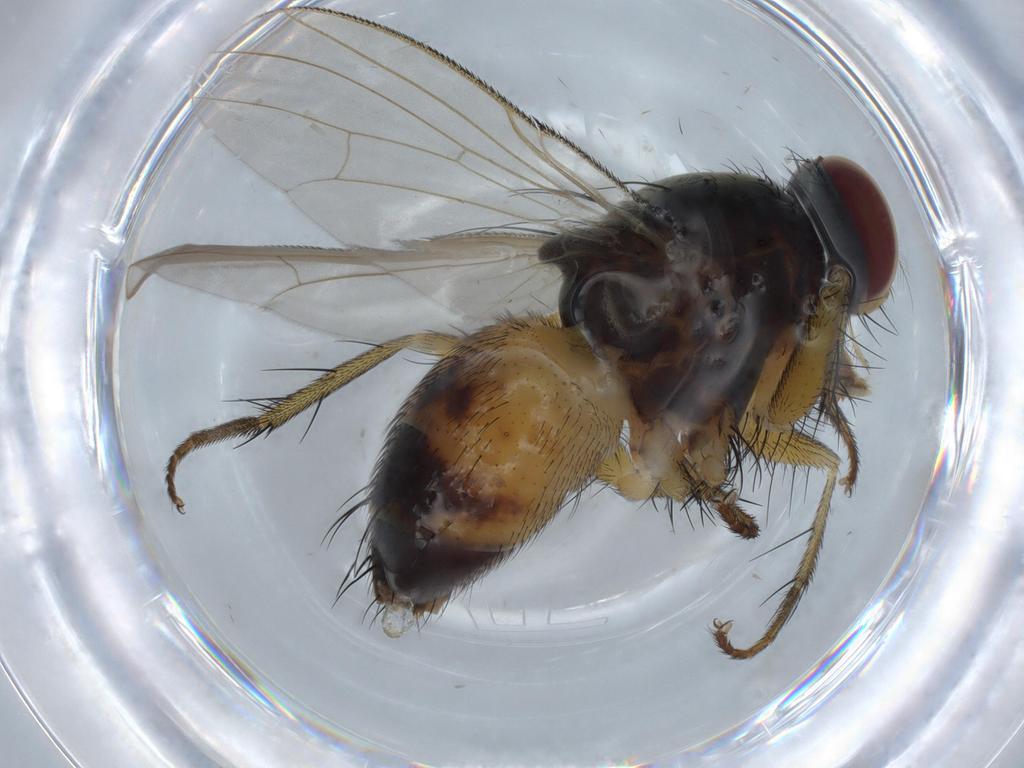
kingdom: Animalia
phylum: Arthropoda
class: Insecta
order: Diptera
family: Muscidae
